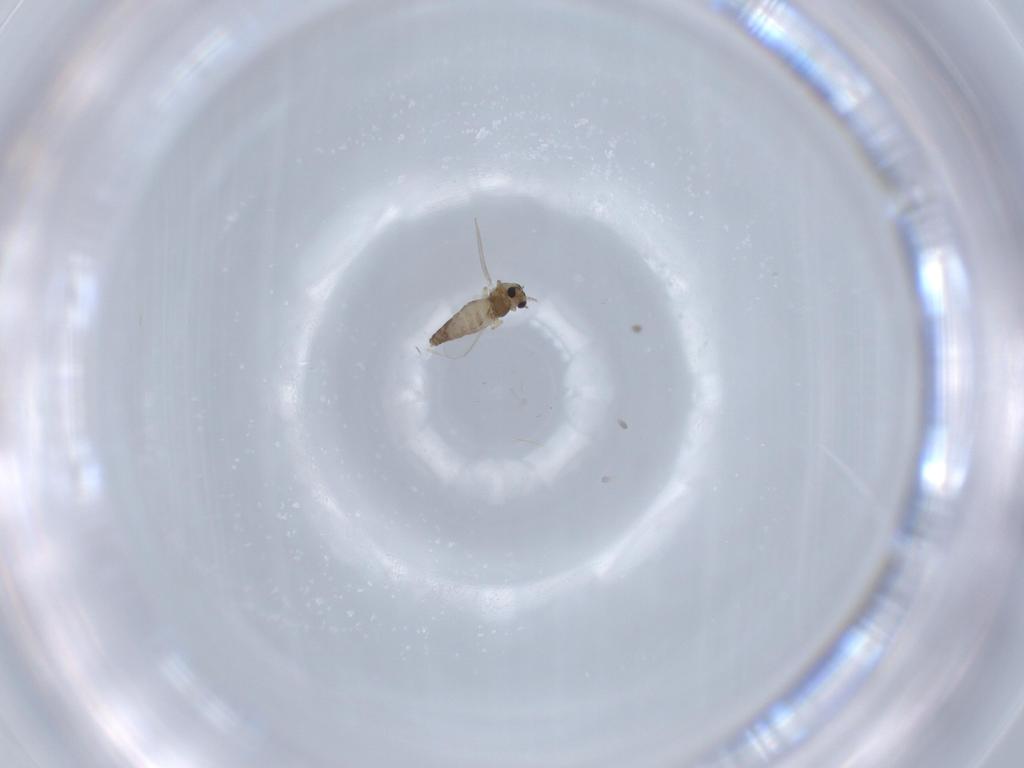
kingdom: Animalia
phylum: Arthropoda
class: Insecta
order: Diptera
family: Chironomidae
